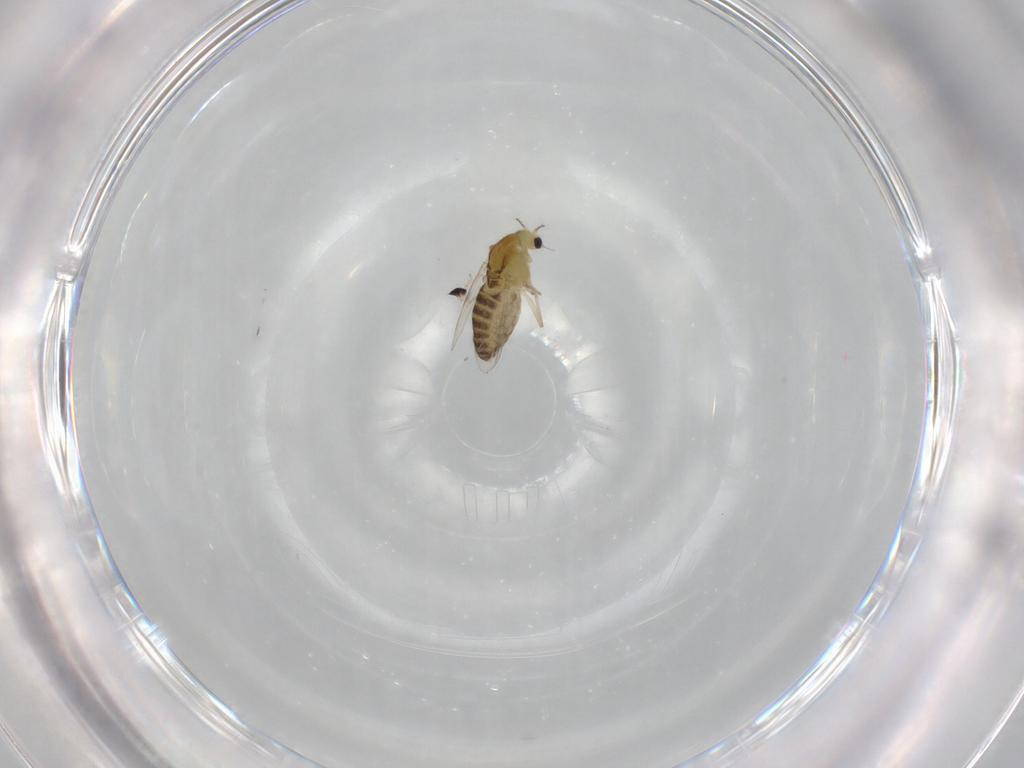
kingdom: Animalia
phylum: Arthropoda
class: Insecta
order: Diptera
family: Chironomidae
